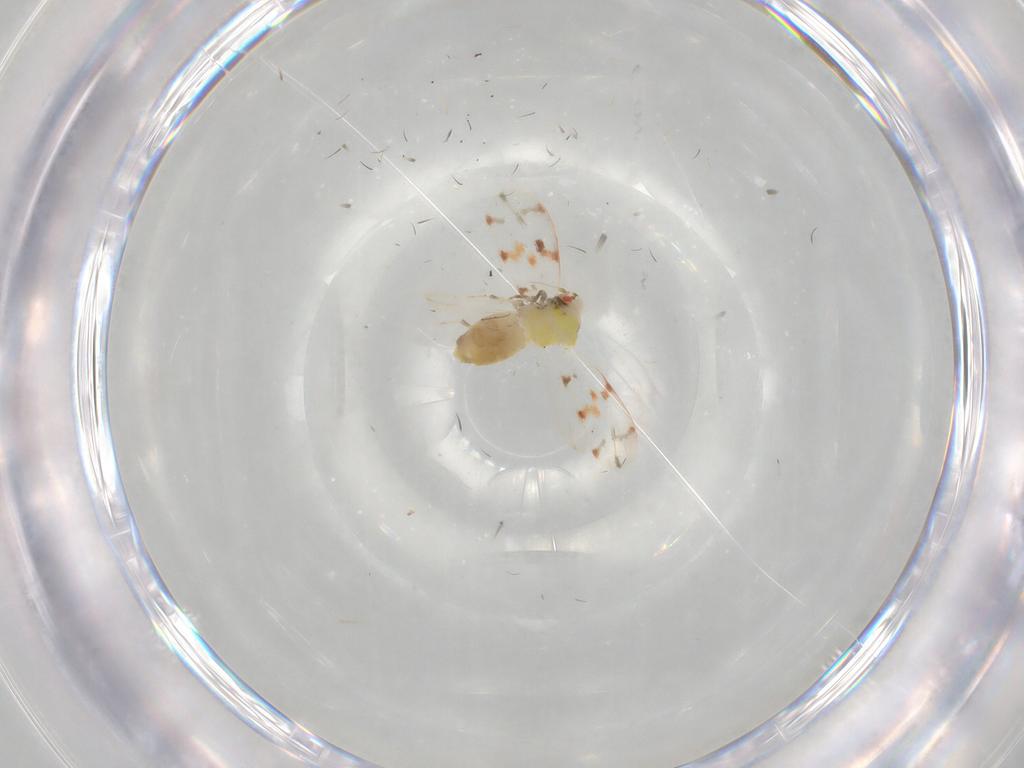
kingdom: Animalia
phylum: Arthropoda
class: Insecta
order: Hemiptera
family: Aleyrodidae
